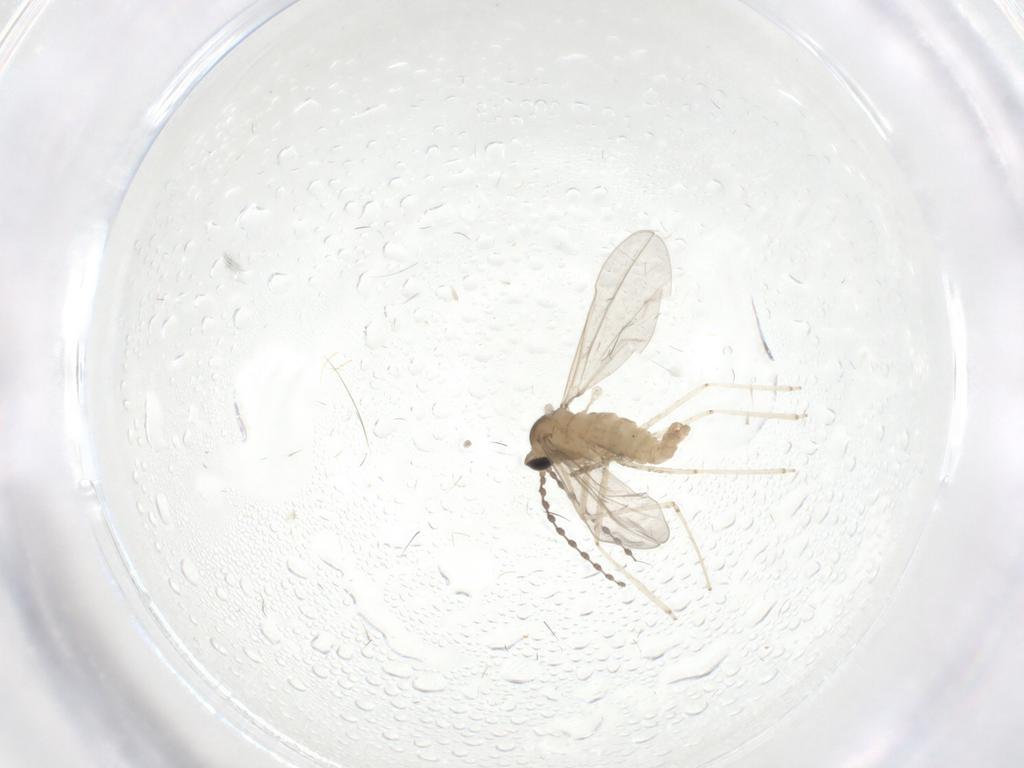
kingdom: Animalia
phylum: Arthropoda
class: Insecta
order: Diptera
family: Cecidomyiidae
